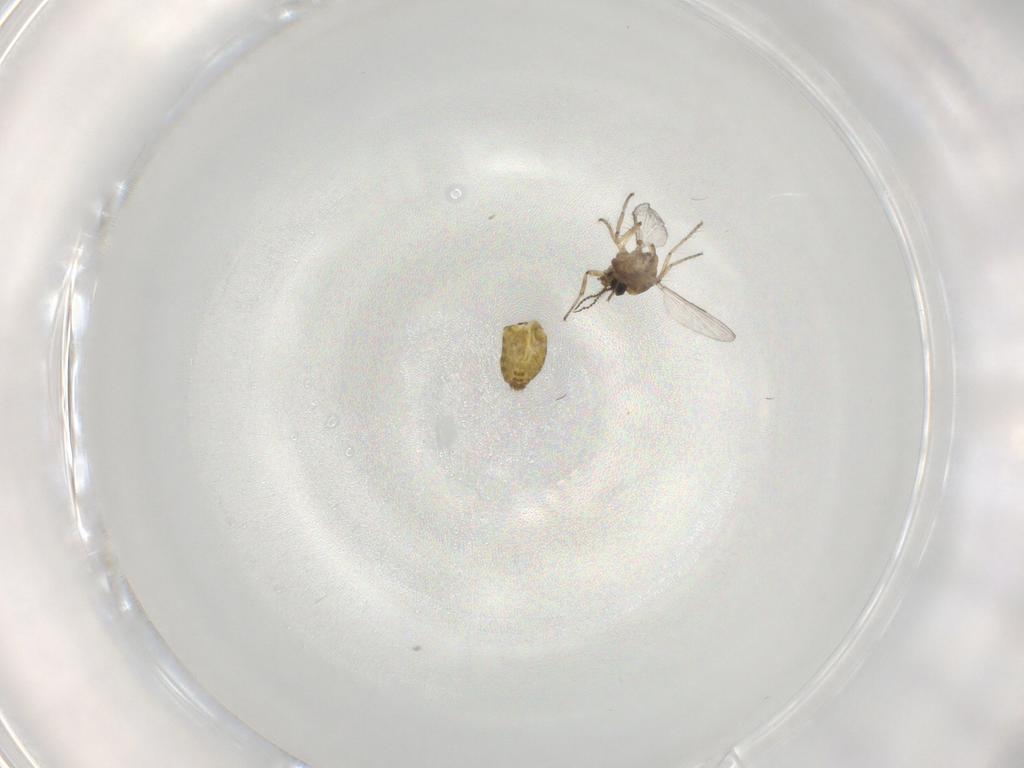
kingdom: Animalia
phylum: Arthropoda
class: Insecta
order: Diptera
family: Ceratopogonidae
